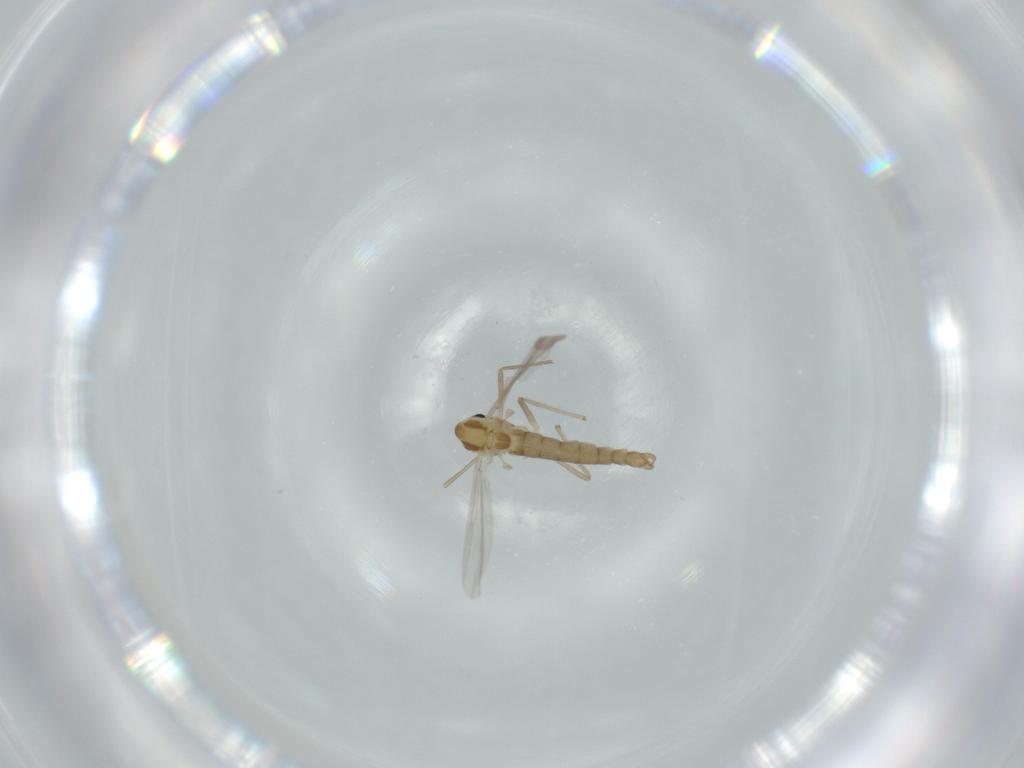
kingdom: Animalia
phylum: Arthropoda
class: Insecta
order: Diptera
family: Chironomidae
